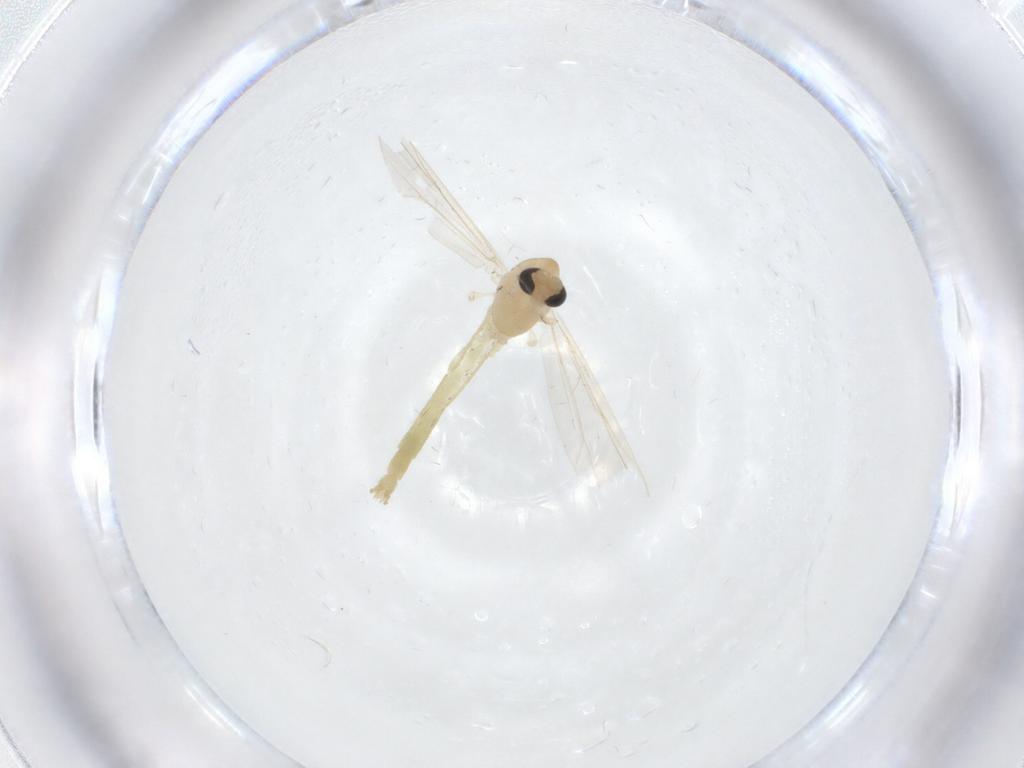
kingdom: Animalia
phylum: Arthropoda
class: Insecta
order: Diptera
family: Chironomidae
